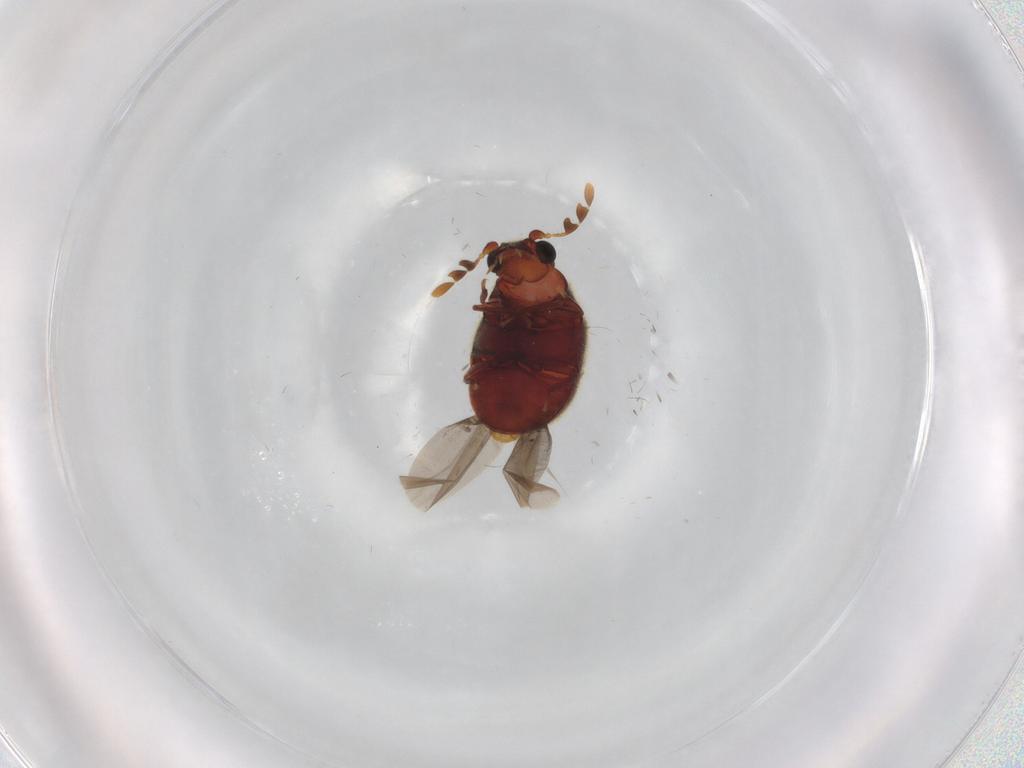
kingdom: Animalia
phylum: Arthropoda
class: Insecta
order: Coleoptera
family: Ptinidae
